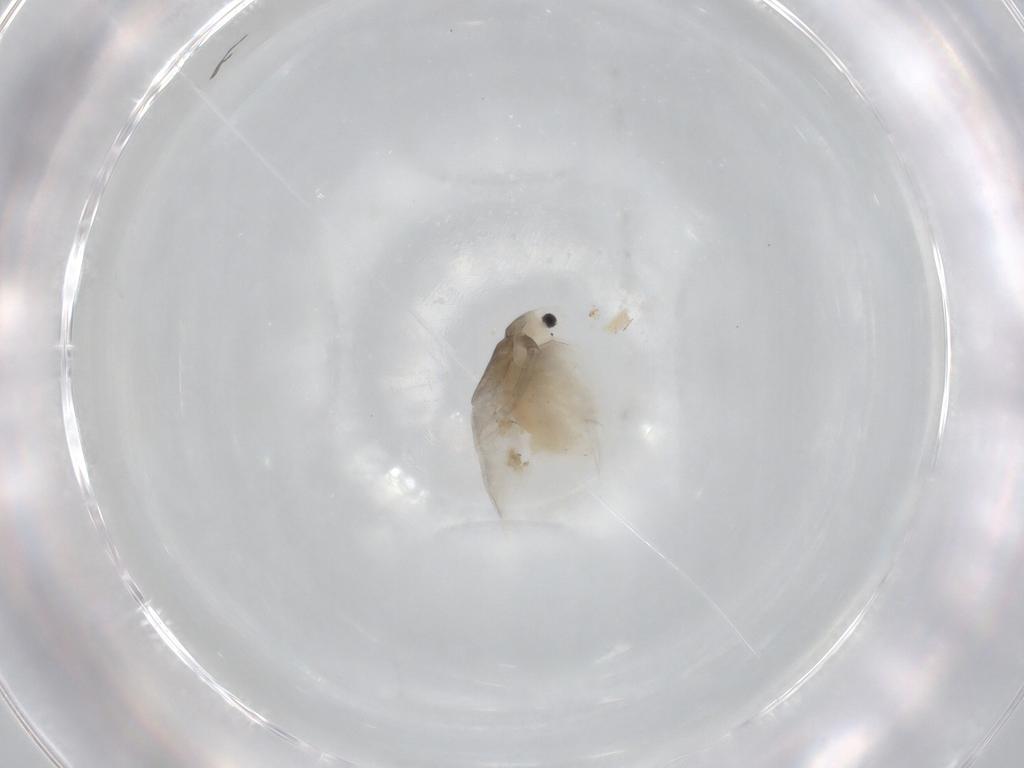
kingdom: Animalia
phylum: Arthropoda
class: Branchiopoda
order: Diplostraca
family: Daphniidae
